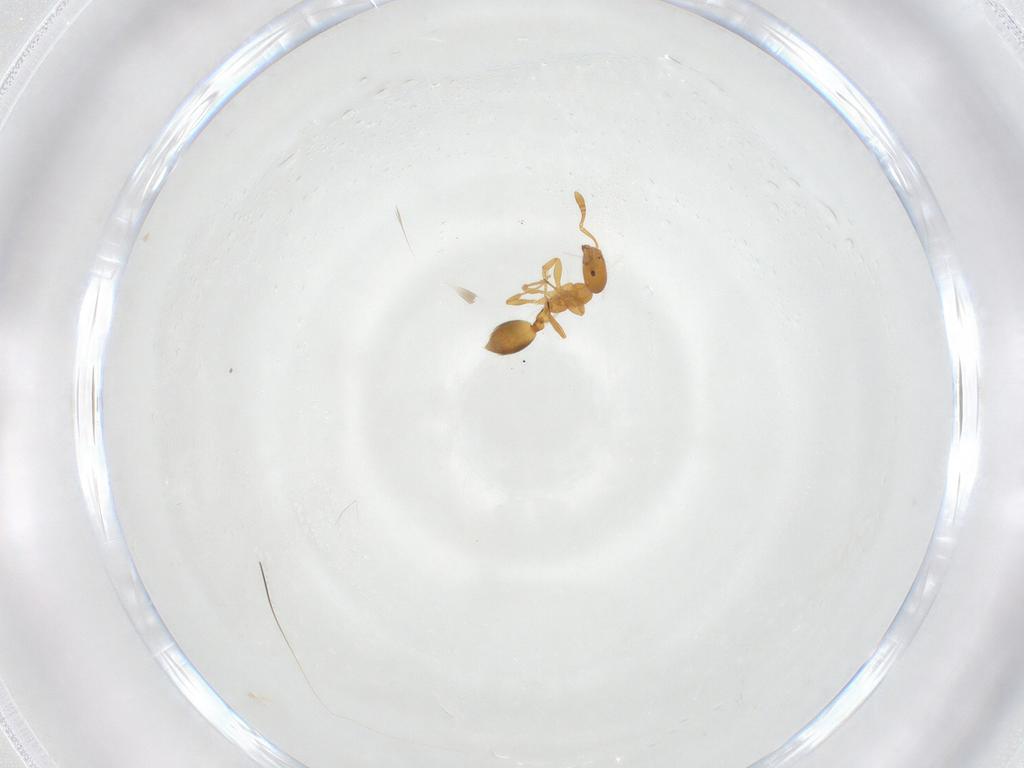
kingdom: Animalia
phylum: Arthropoda
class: Insecta
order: Hymenoptera
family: Formicidae
